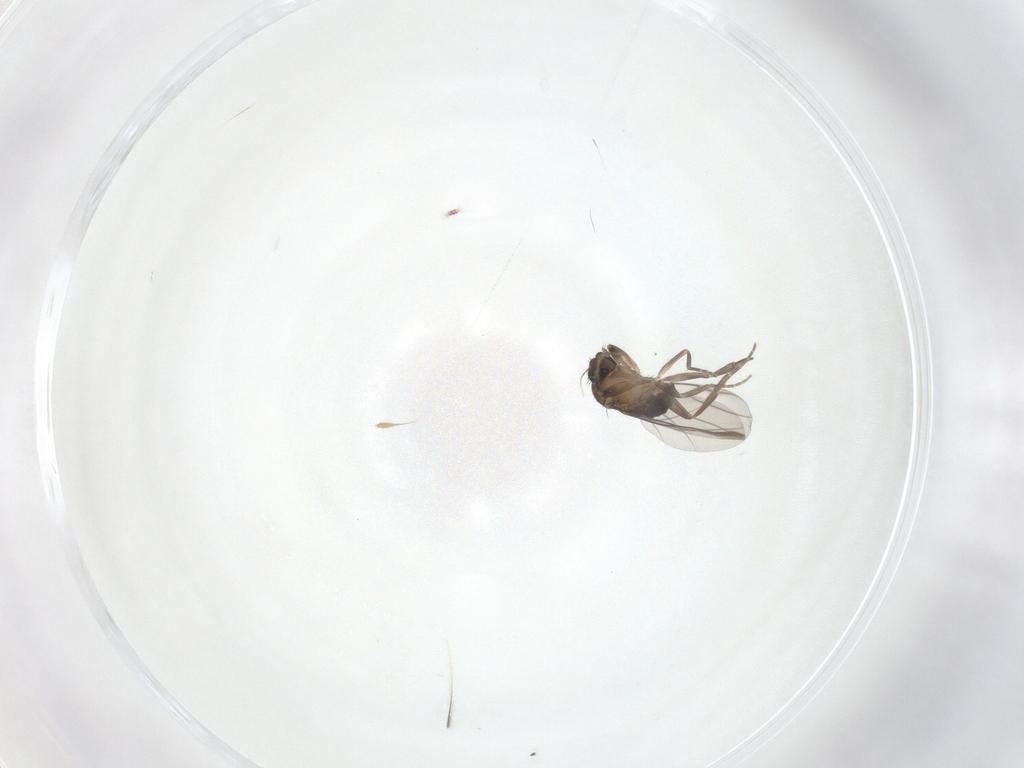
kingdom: Animalia
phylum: Arthropoda
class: Insecta
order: Diptera
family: Phoridae
